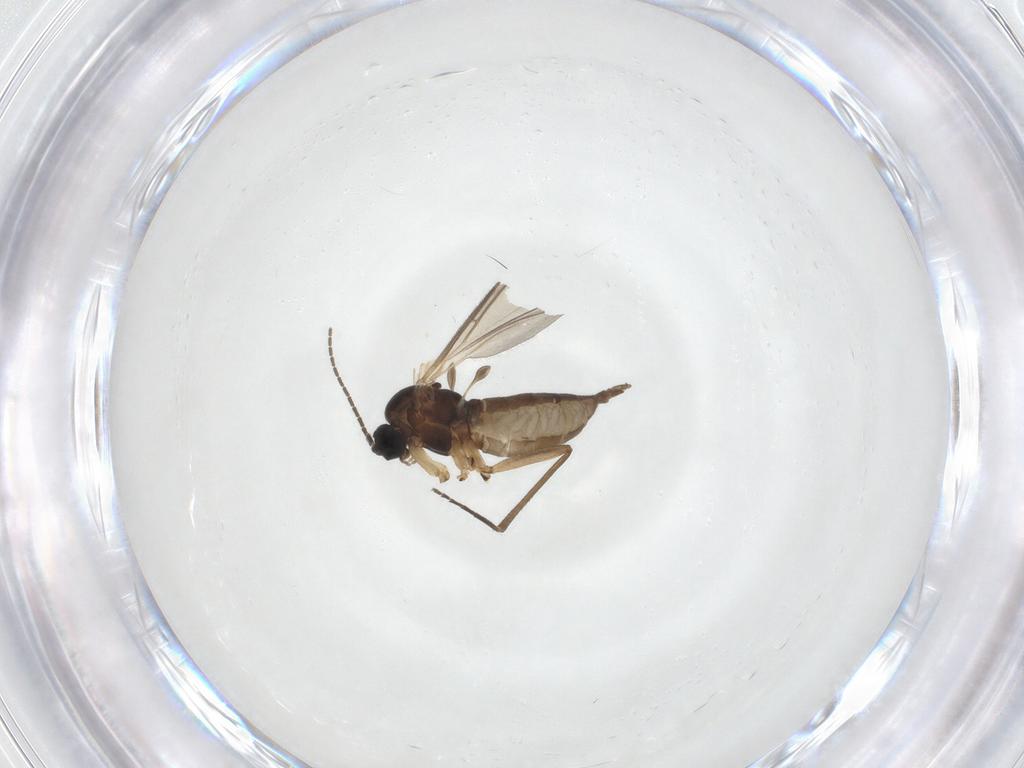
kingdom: Animalia
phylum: Arthropoda
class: Insecta
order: Diptera
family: Sciaridae
